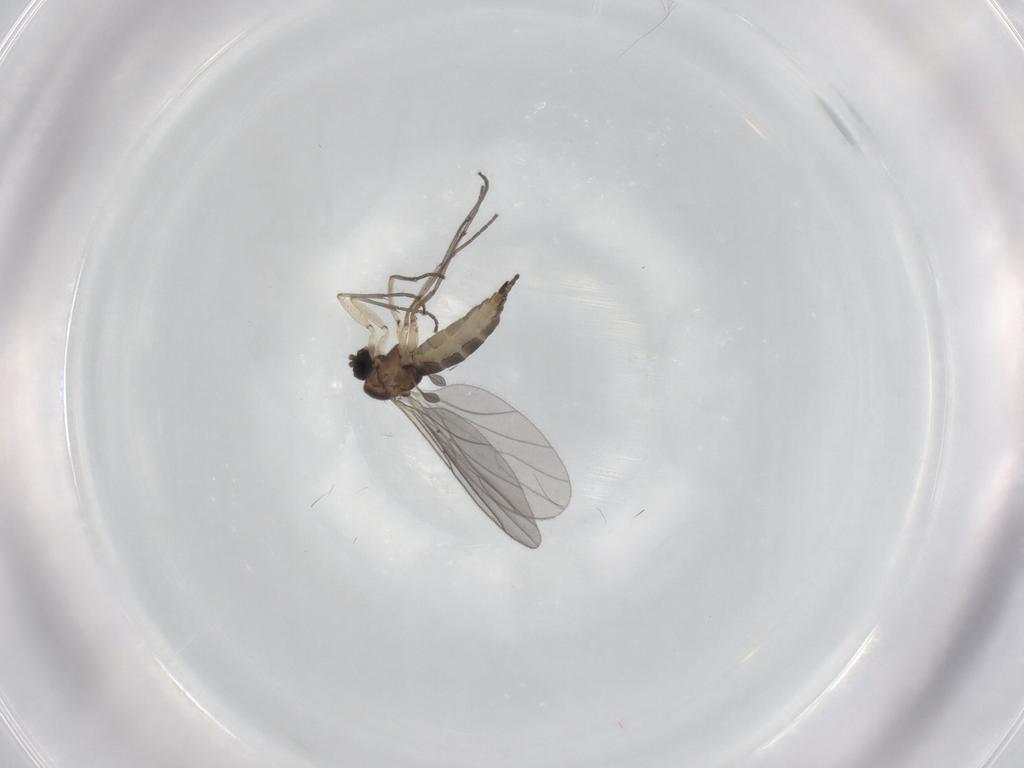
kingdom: Animalia
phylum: Arthropoda
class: Insecta
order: Diptera
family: Sciaridae
